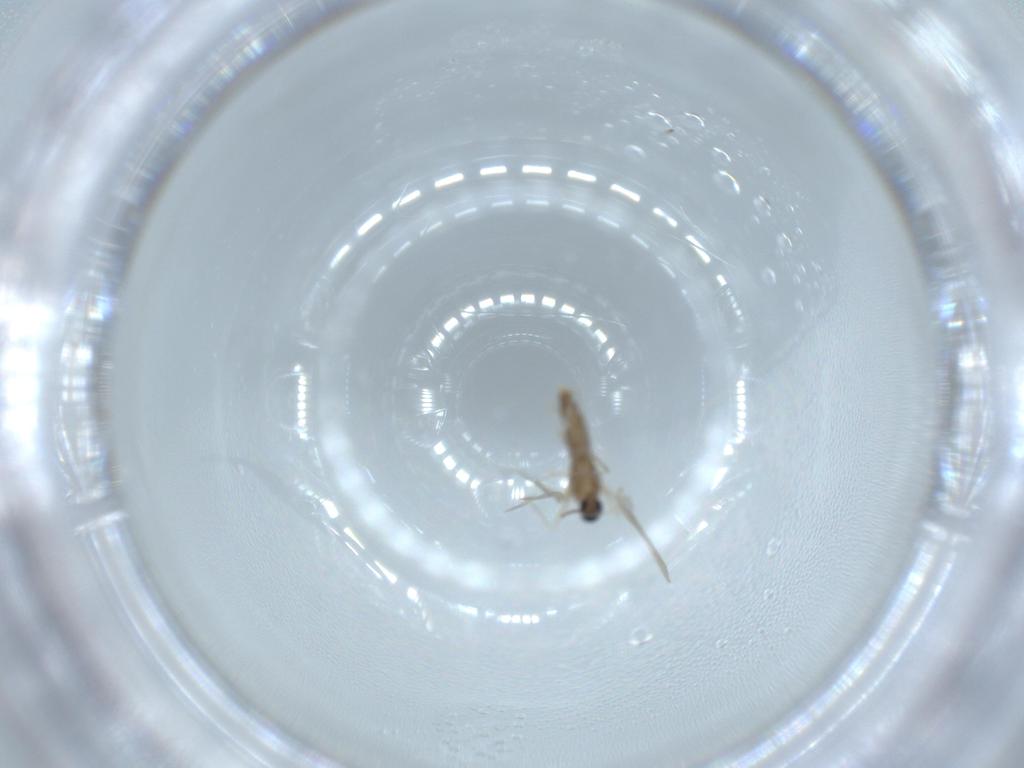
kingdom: Animalia
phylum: Arthropoda
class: Insecta
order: Diptera
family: Cecidomyiidae
